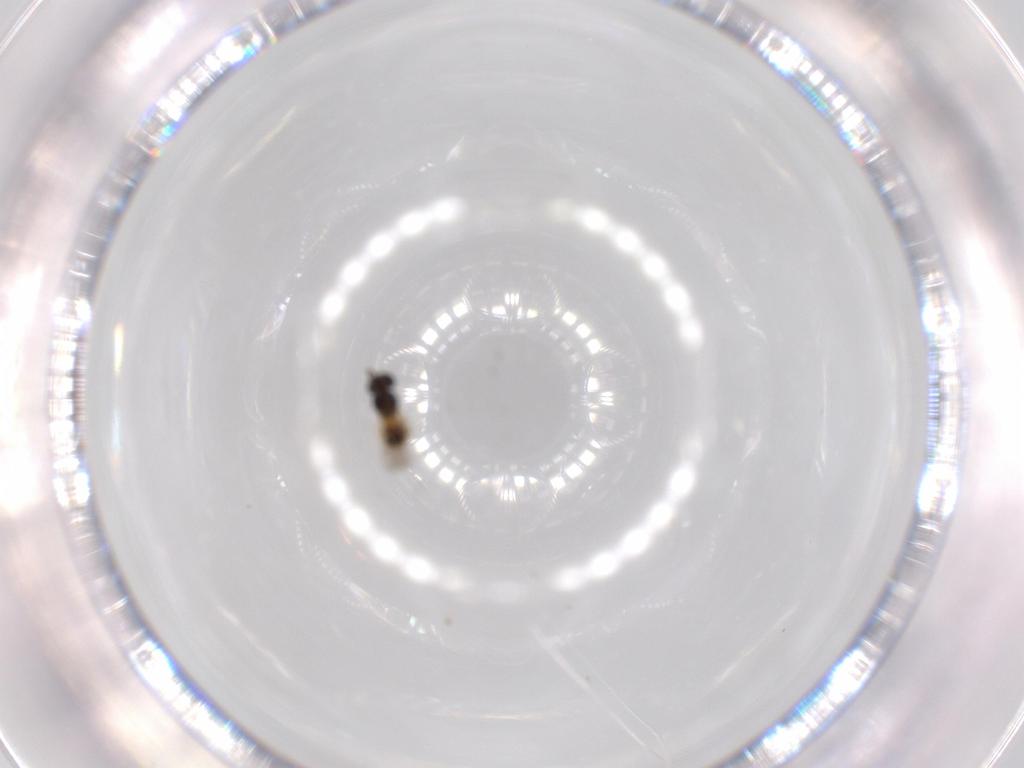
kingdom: Animalia
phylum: Arthropoda
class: Insecta
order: Hymenoptera
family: Scelionidae
